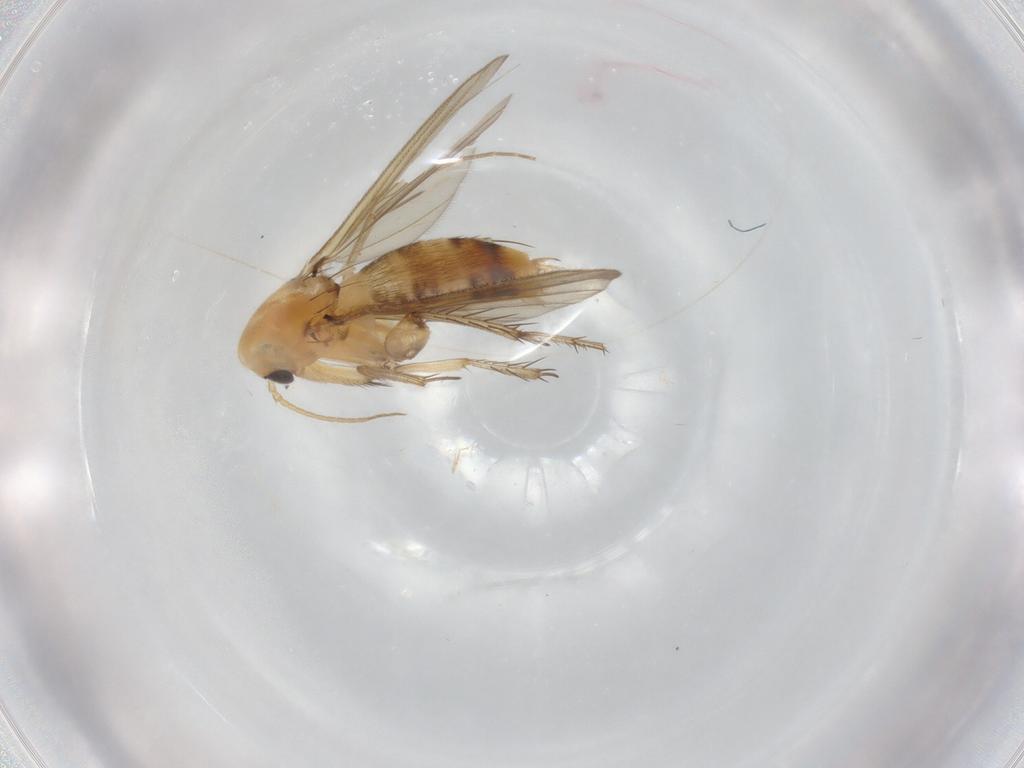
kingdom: Animalia
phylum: Arthropoda
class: Insecta
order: Diptera
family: Mycetophilidae
